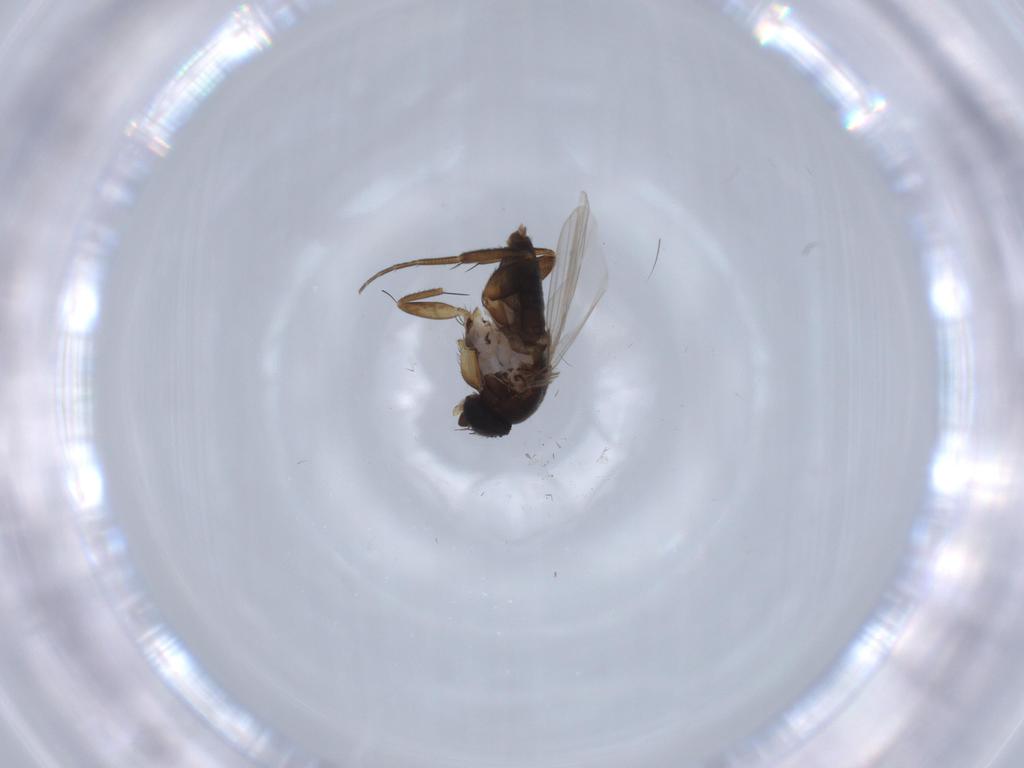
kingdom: Animalia
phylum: Arthropoda
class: Insecta
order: Diptera
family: Phoridae
